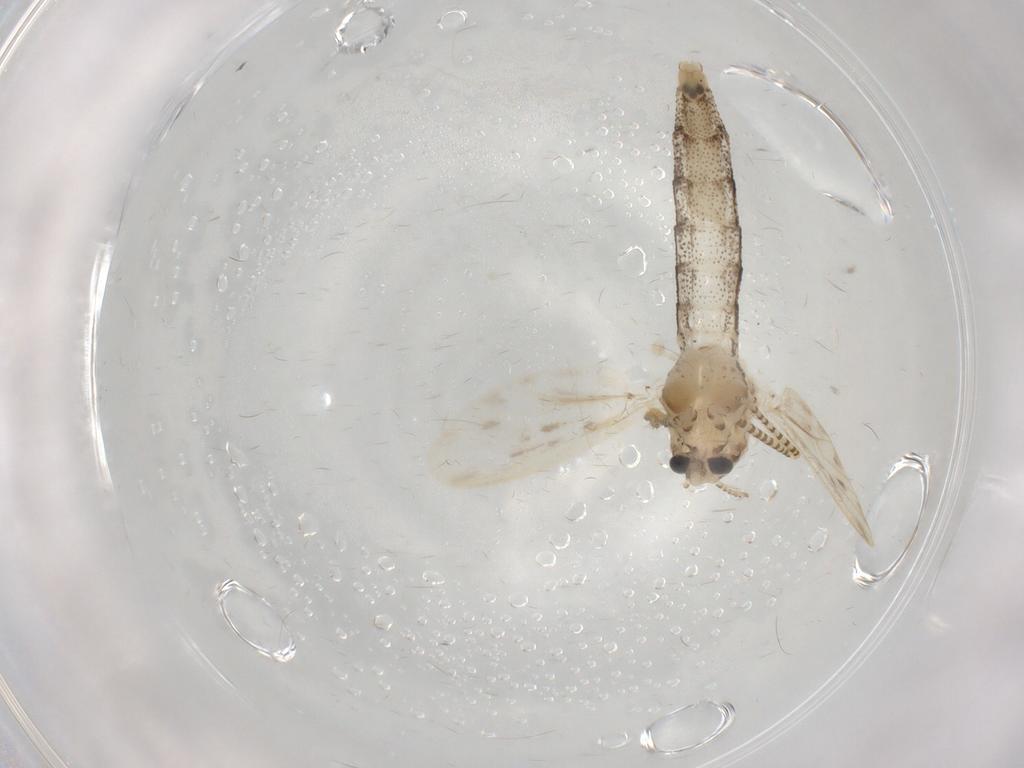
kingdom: Animalia
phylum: Arthropoda
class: Insecta
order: Diptera
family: Chaoboridae
